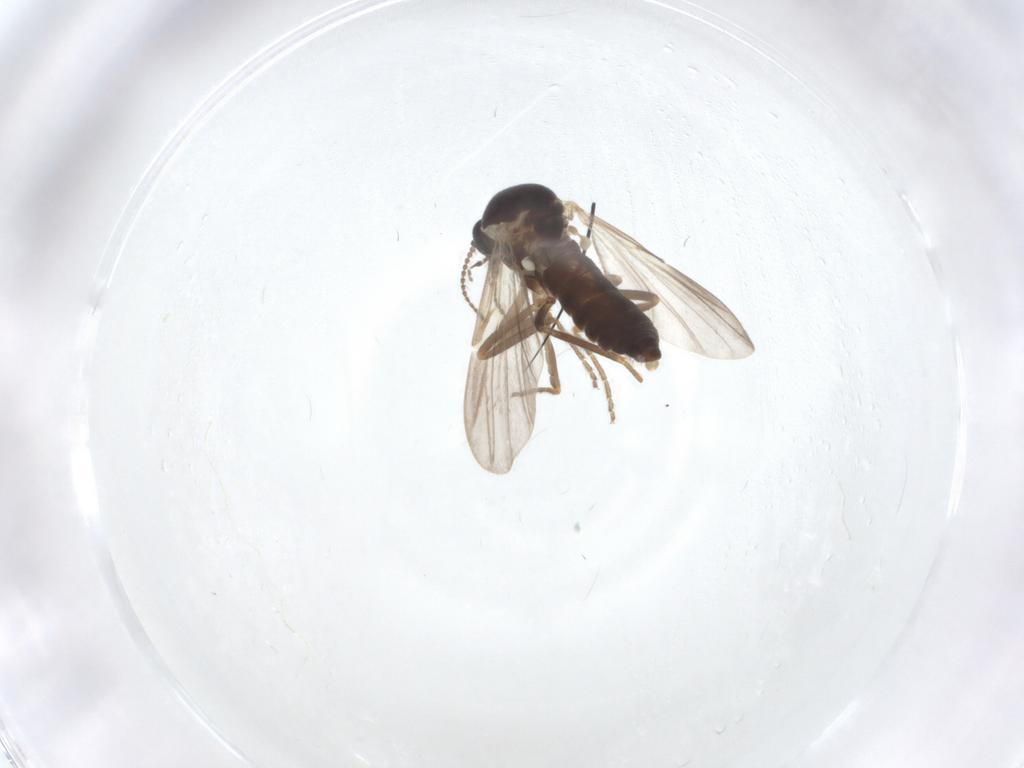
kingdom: Animalia
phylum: Arthropoda
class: Insecta
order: Diptera
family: Ceratopogonidae
